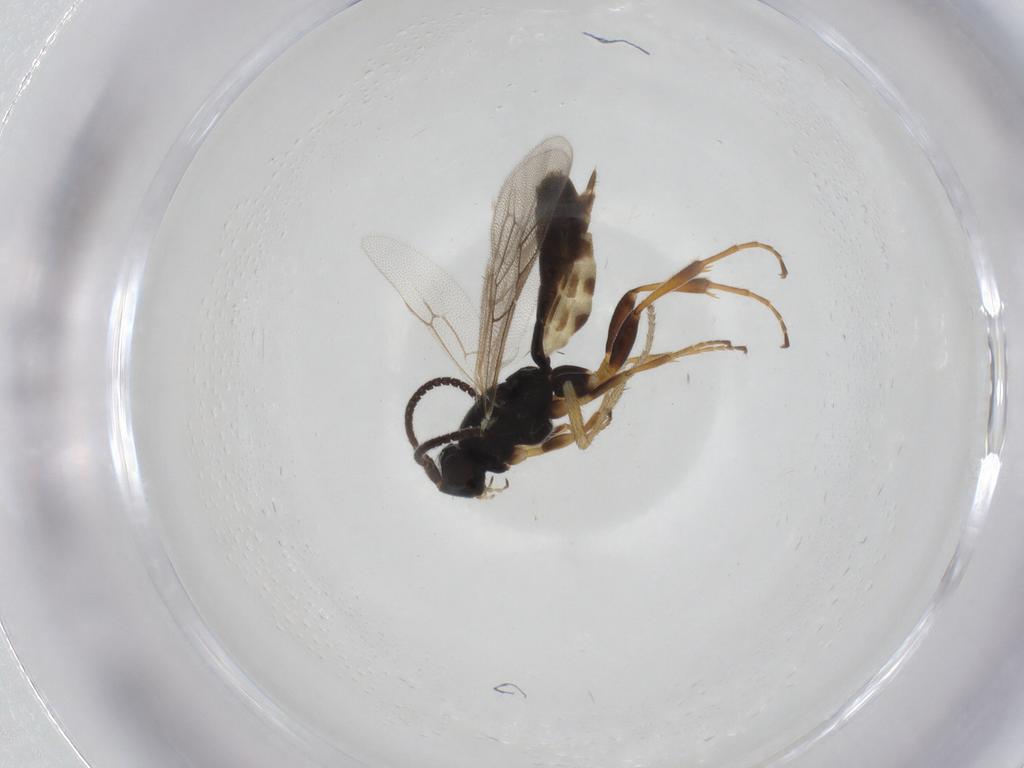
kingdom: Animalia
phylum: Arthropoda
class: Insecta
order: Hymenoptera
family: Ichneumonidae
